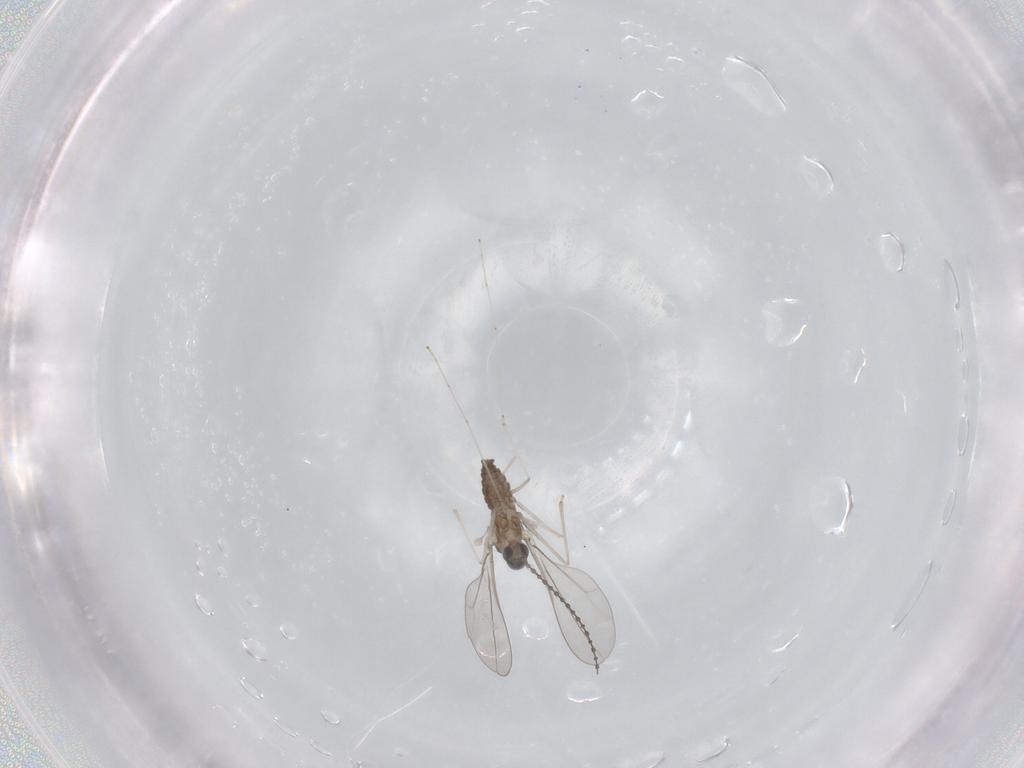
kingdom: Animalia
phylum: Arthropoda
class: Insecta
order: Diptera
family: Cecidomyiidae
